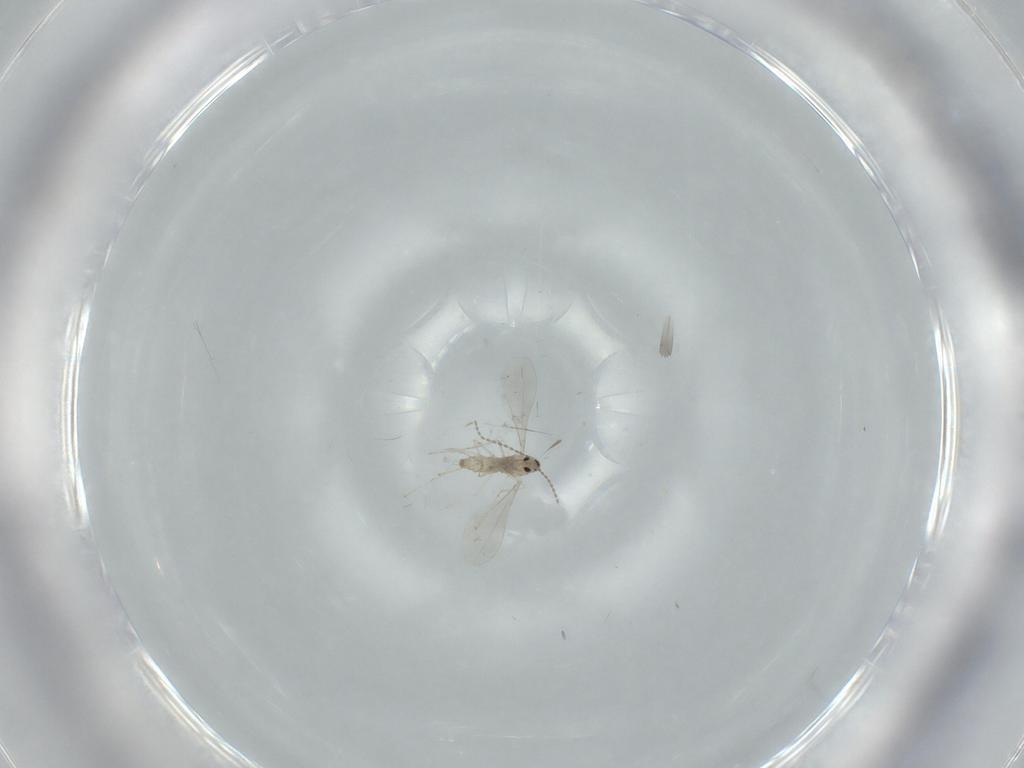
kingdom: Animalia
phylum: Arthropoda
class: Insecta
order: Diptera
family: Cecidomyiidae
